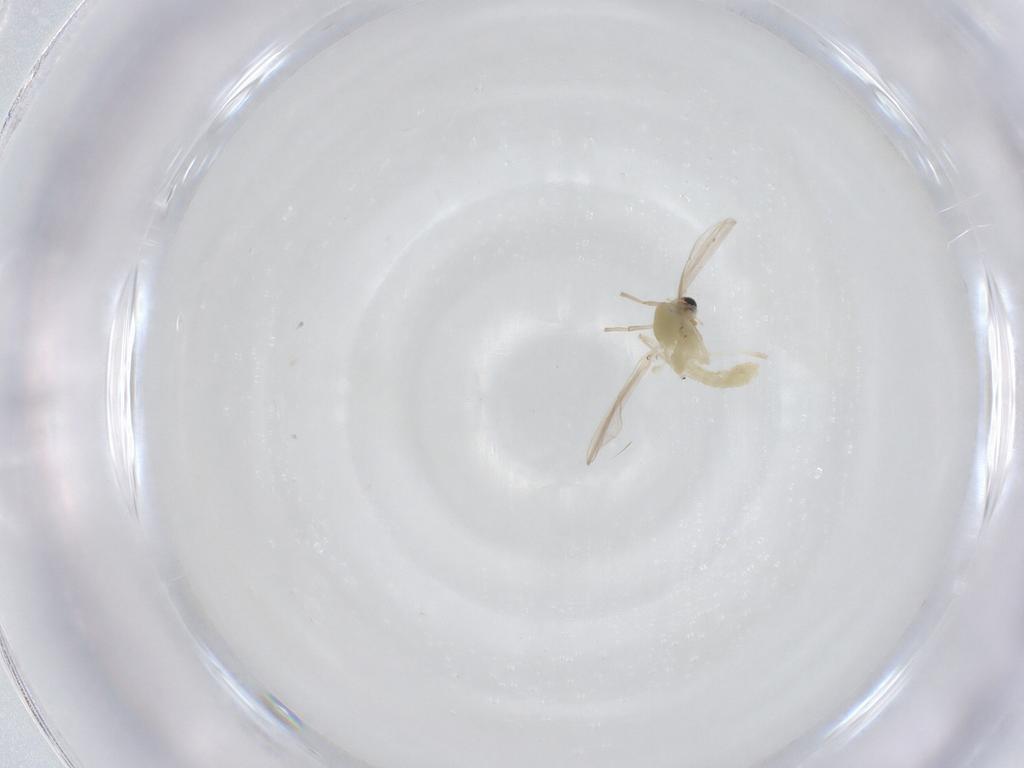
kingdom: Animalia
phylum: Arthropoda
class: Insecta
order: Diptera
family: Chironomidae
